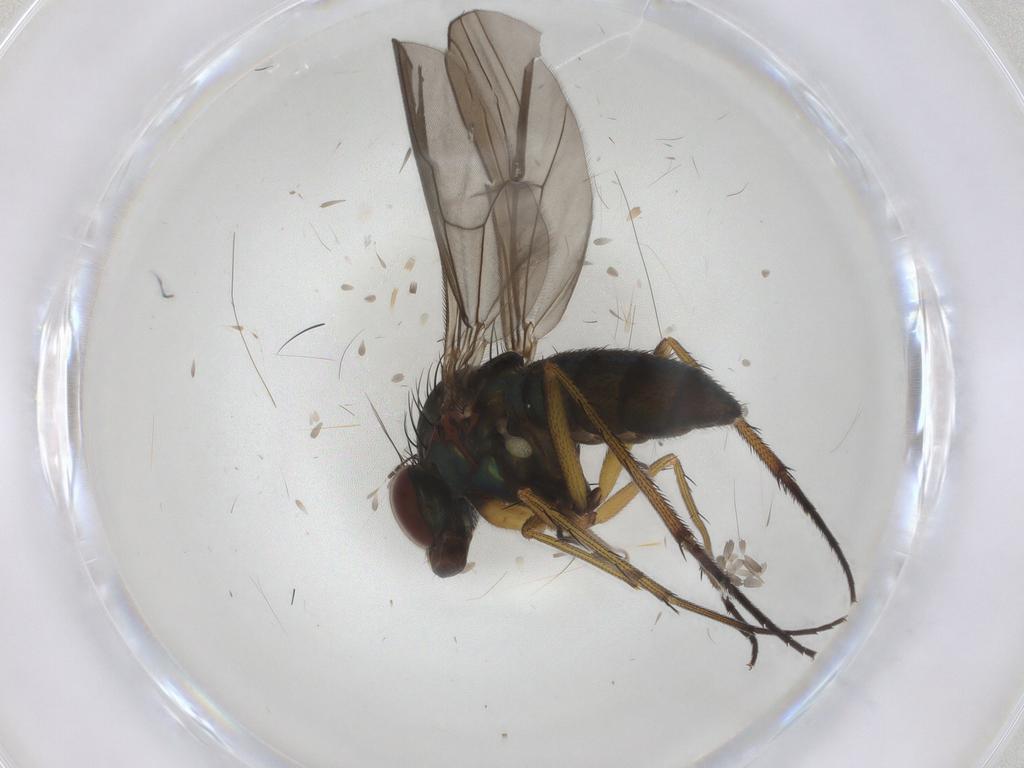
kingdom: Animalia
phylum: Arthropoda
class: Insecta
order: Diptera
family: Dolichopodidae
